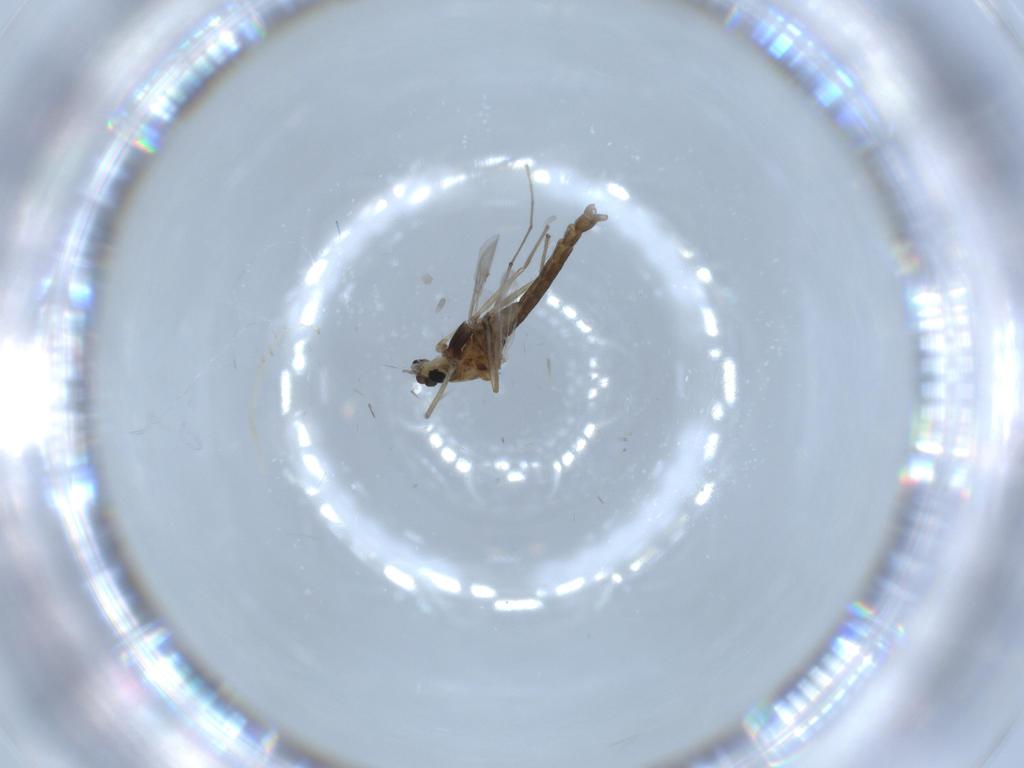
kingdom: Animalia
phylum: Arthropoda
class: Insecta
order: Diptera
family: Chironomidae
